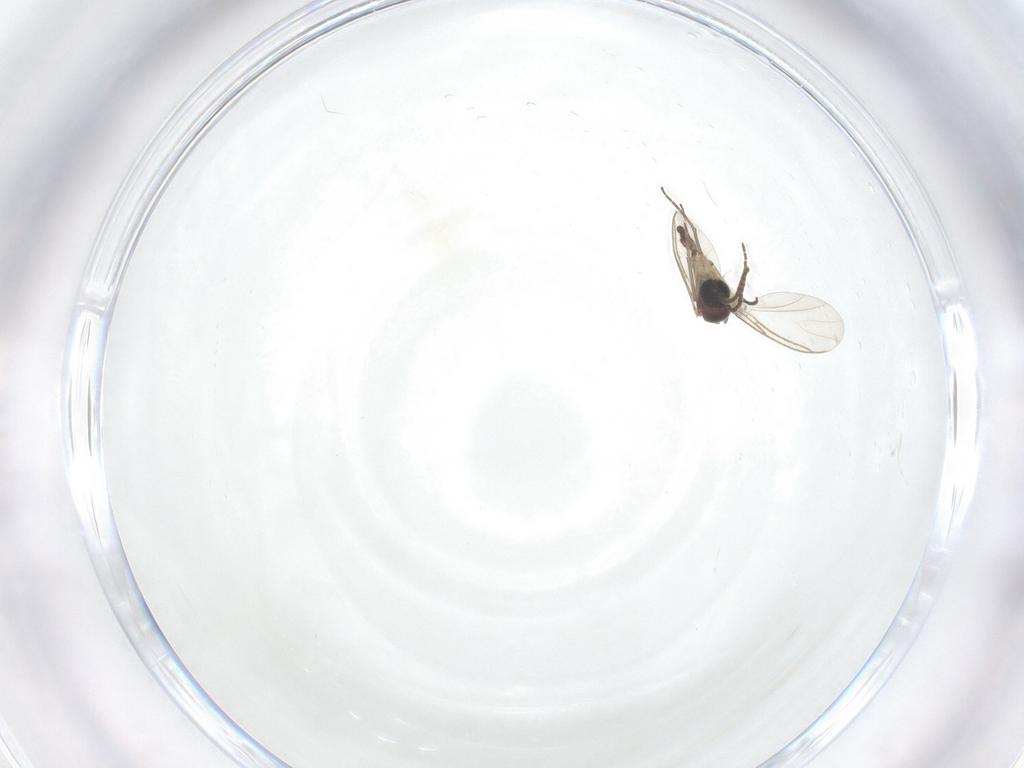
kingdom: Animalia
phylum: Arthropoda
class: Insecta
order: Diptera
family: Sciaridae
